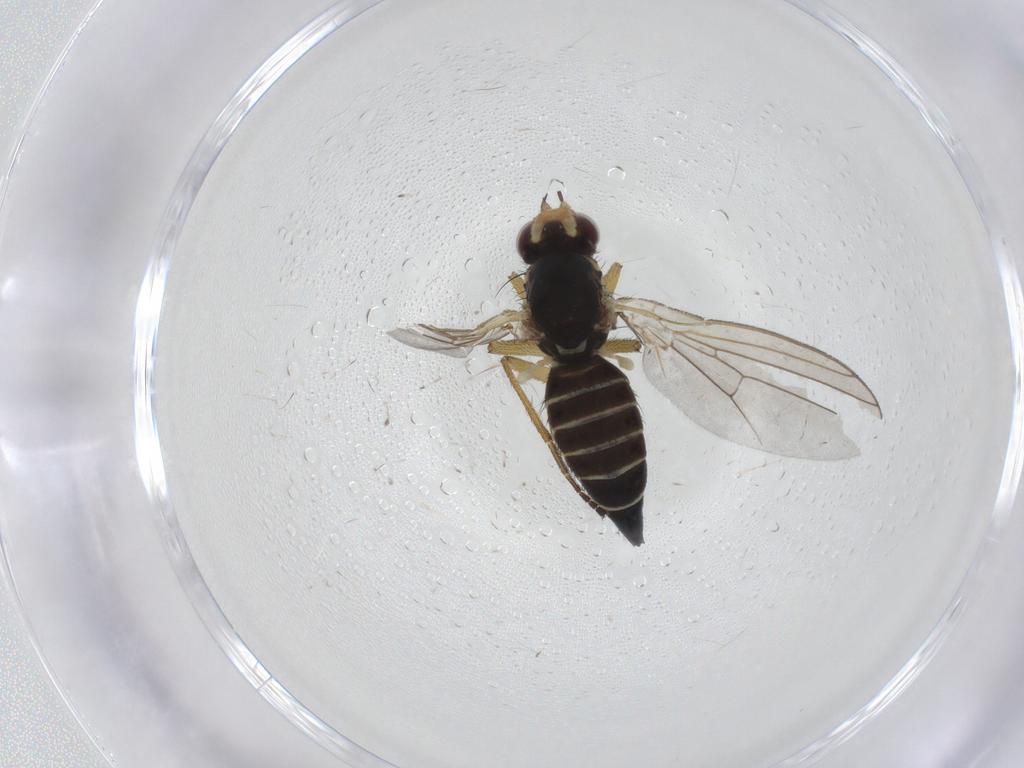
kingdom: Animalia
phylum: Arthropoda
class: Insecta
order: Diptera
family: Agromyzidae
